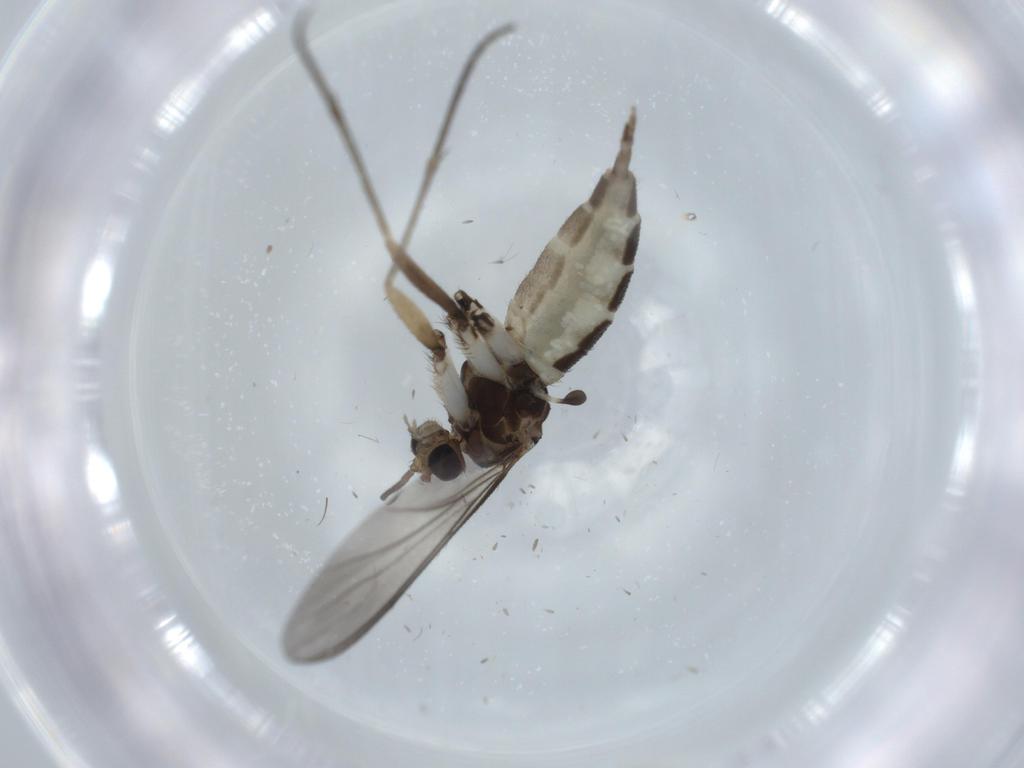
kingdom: Animalia
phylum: Arthropoda
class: Insecta
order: Diptera
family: Sciaridae
